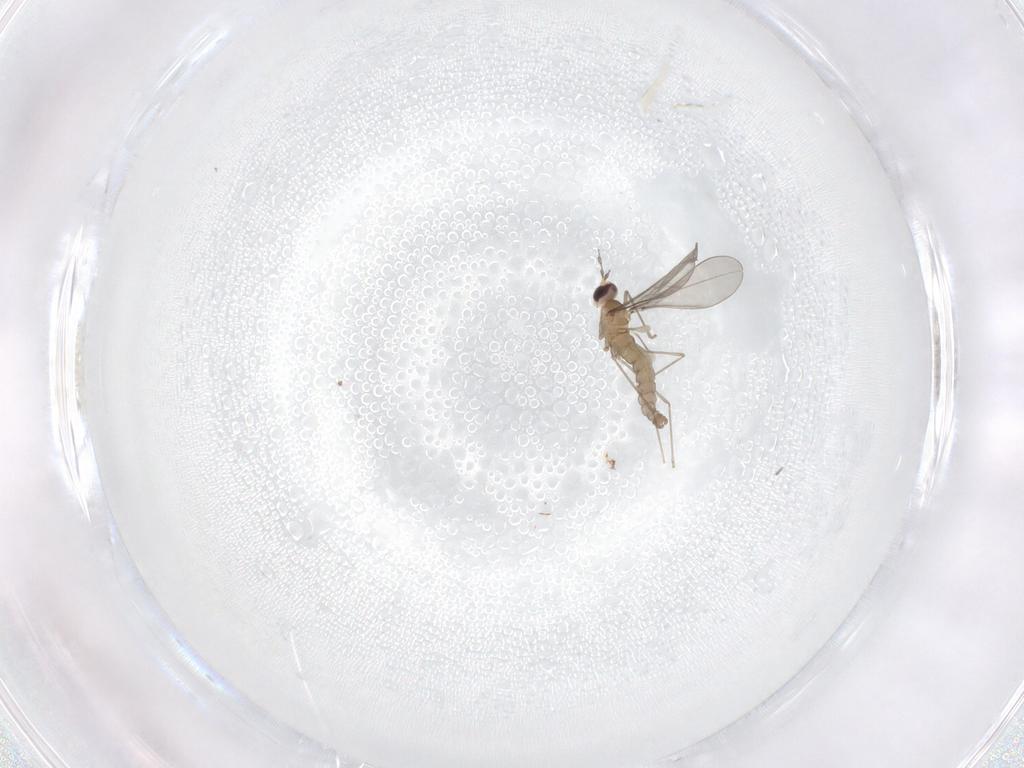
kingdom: Animalia
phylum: Arthropoda
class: Insecta
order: Diptera
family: Cecidomyiidae
